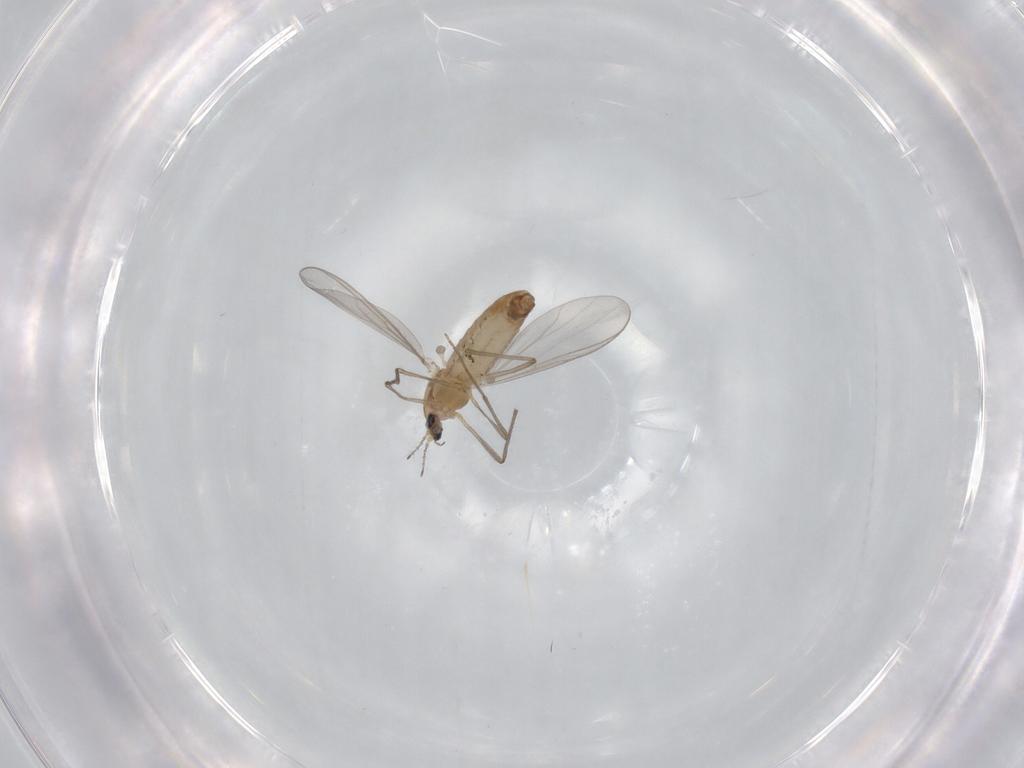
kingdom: Animalia
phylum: Arthropoda
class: Insecta
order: Diptera
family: Chironomidae
